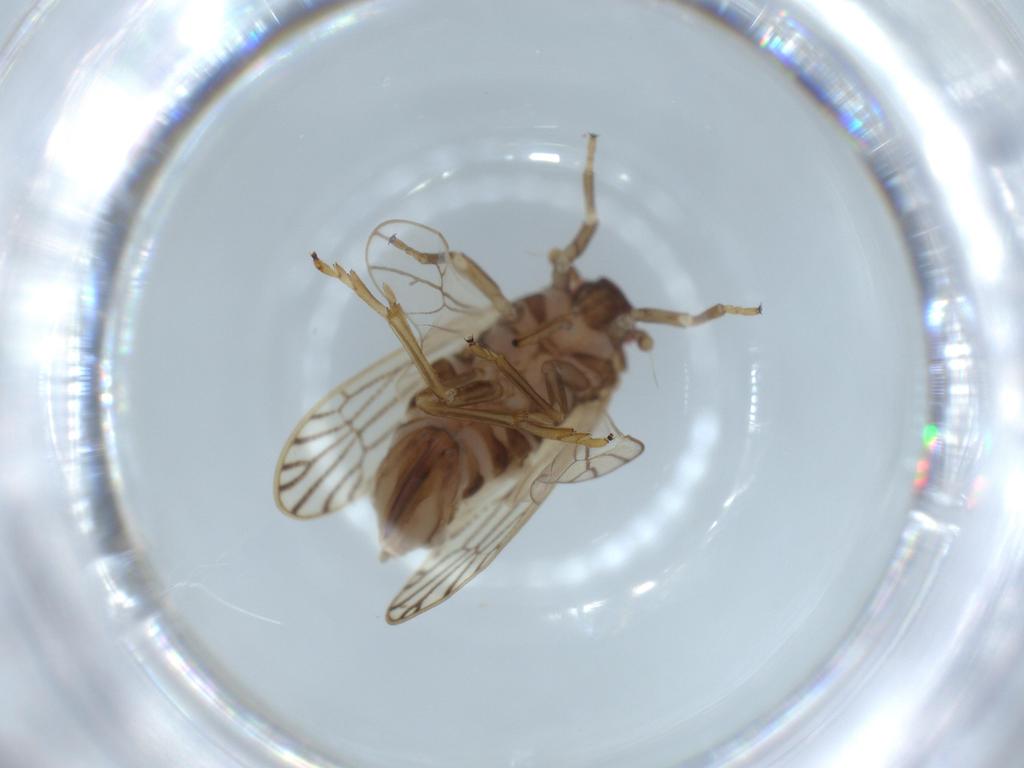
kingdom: Animalia
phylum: Arthropoda
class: Insecta
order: Hemiptera
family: Delphacidae
